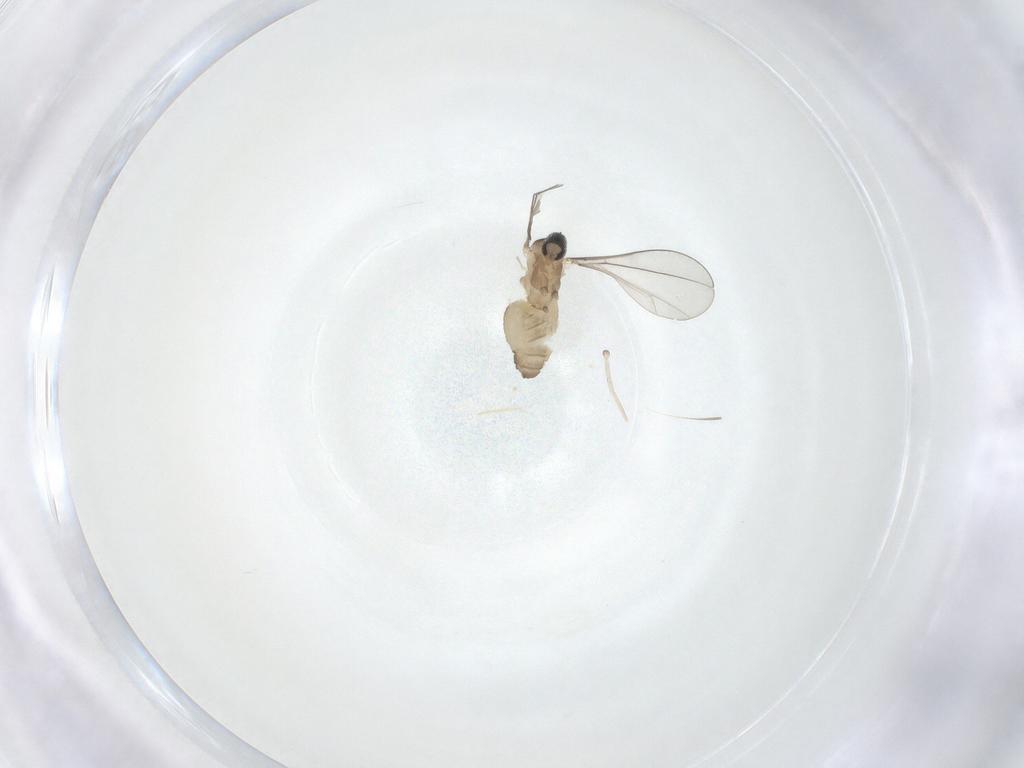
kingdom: Animalia
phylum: Arthropoda
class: Insecta
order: Diptera
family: Cecidomyiidae
